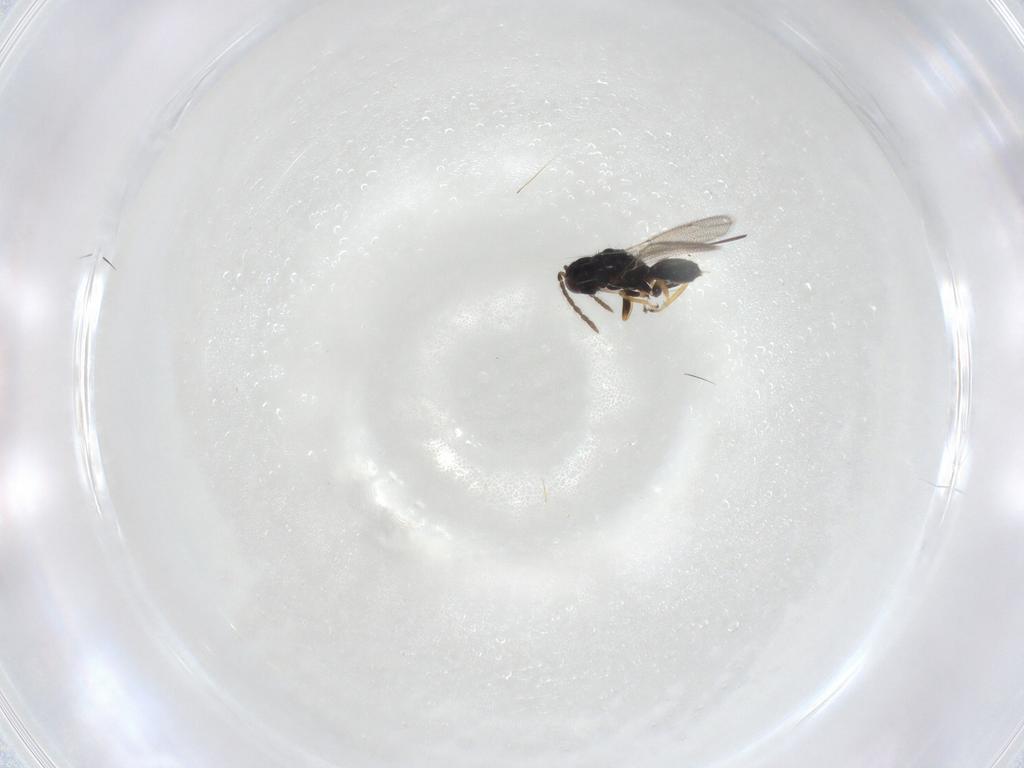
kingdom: Animalia
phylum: Arthropoda
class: Insecta
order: Hymenoptera
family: Eulophidae
